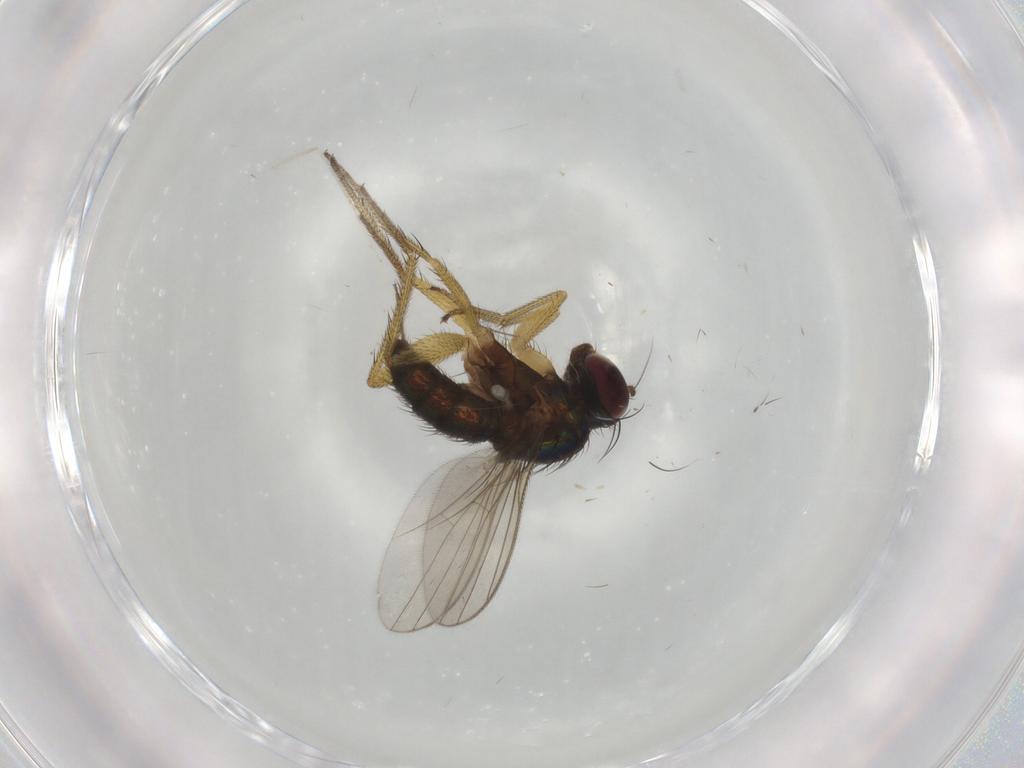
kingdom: Animalia
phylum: Arthropoda
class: Insecta
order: Diptera
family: Dolichopodidae
